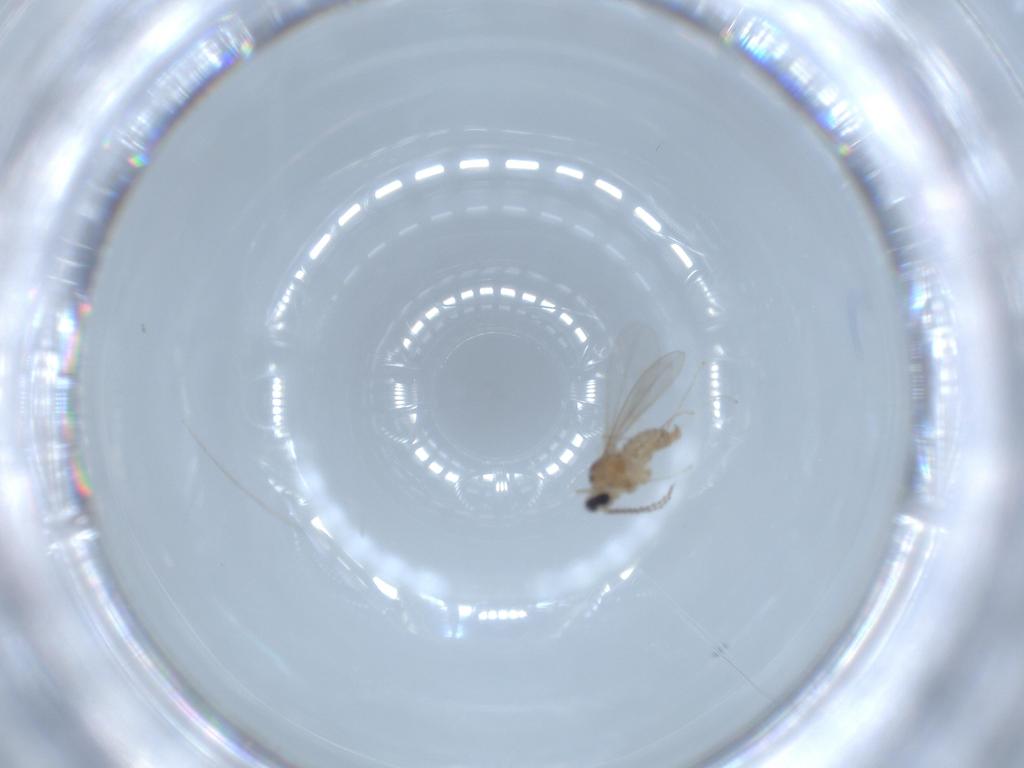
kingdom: Animalia
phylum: Arthropoda
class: Insecta
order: Diptera
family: Cecidomyiidae
